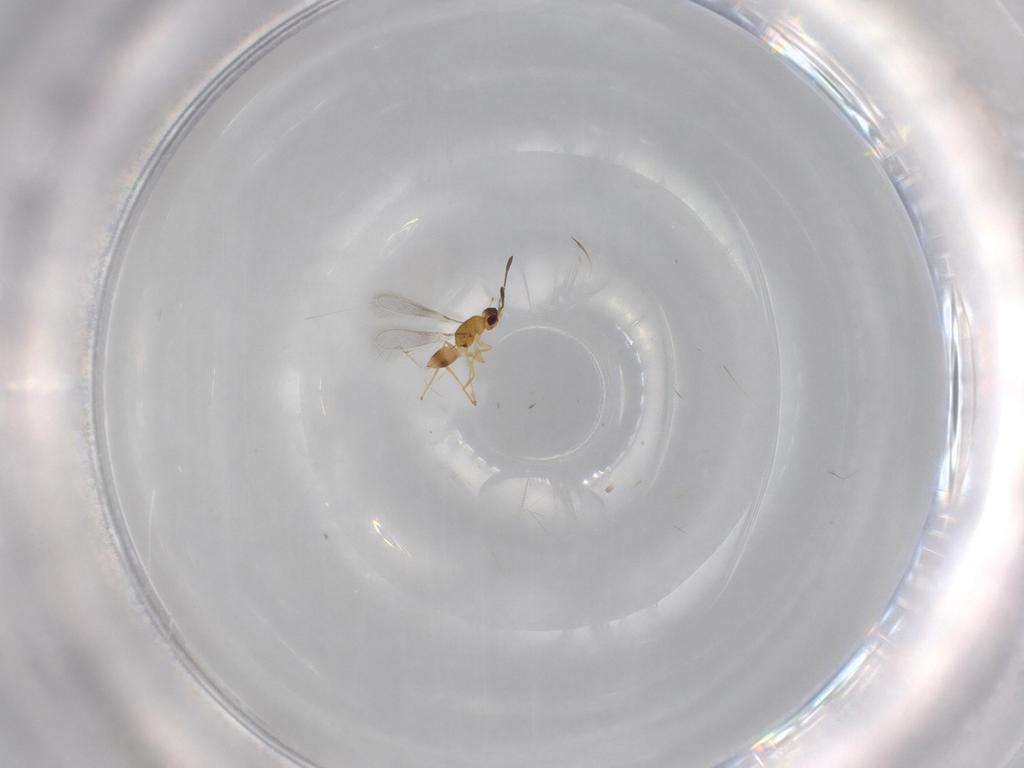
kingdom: Animalia
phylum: Arthropoda
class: Insecta
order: Hymenoptera
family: Mymaridae
